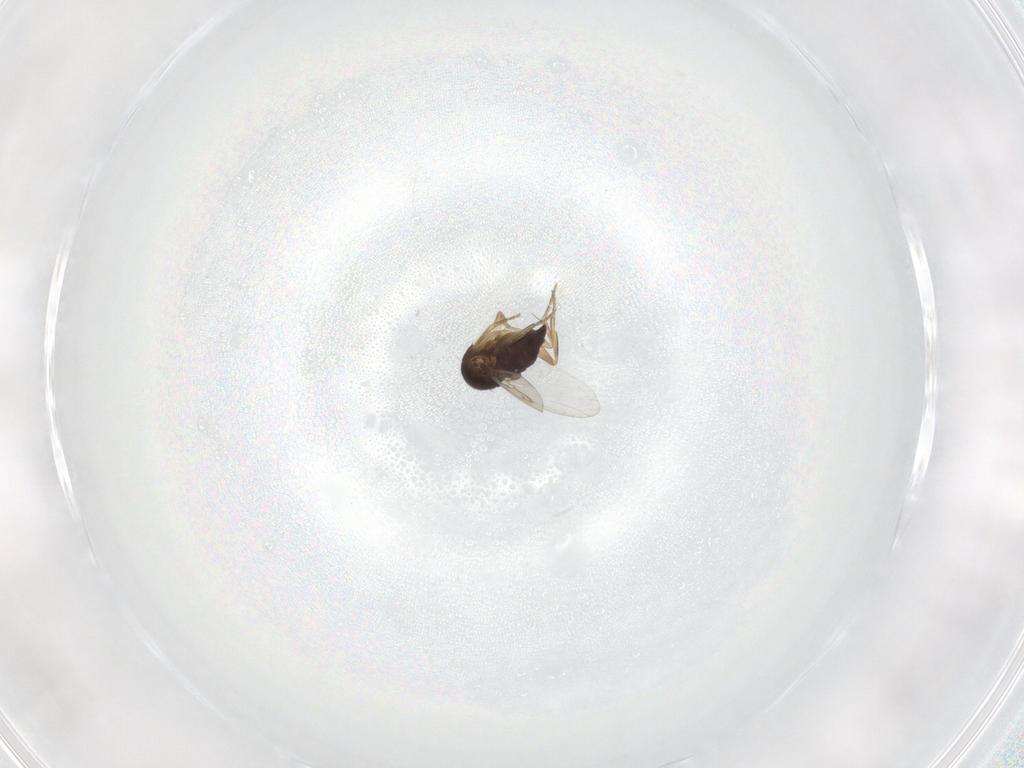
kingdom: Animalia
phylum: Arthropoda
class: Insecta
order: Diptera
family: Phoridae
